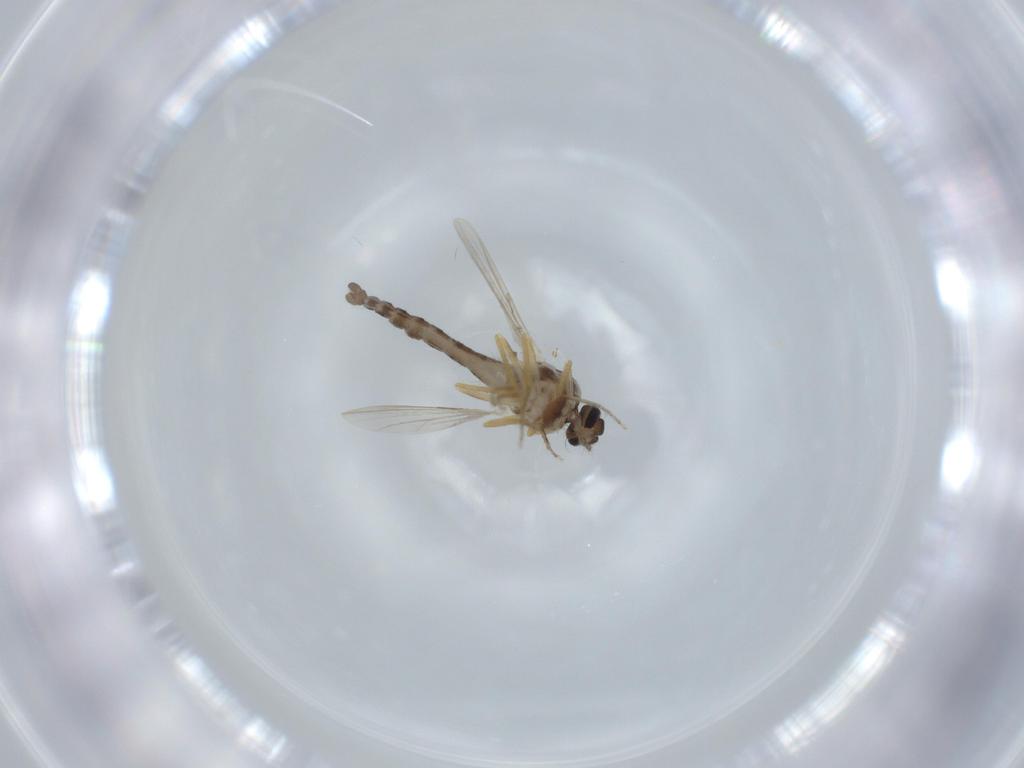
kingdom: Animalia
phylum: Arthropoda
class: Insecta
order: Diptera
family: Ceratopogonidae
